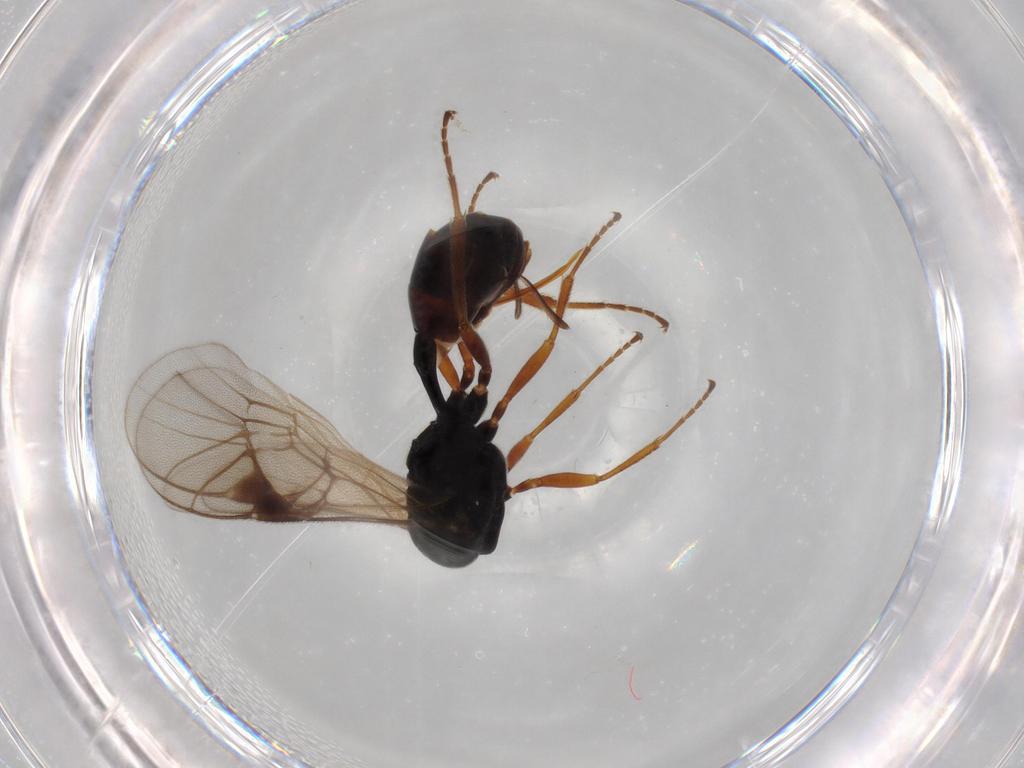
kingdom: Animalia
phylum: Arthropoda
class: Insecta
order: Hymenoptera
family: Ichneumonidae
